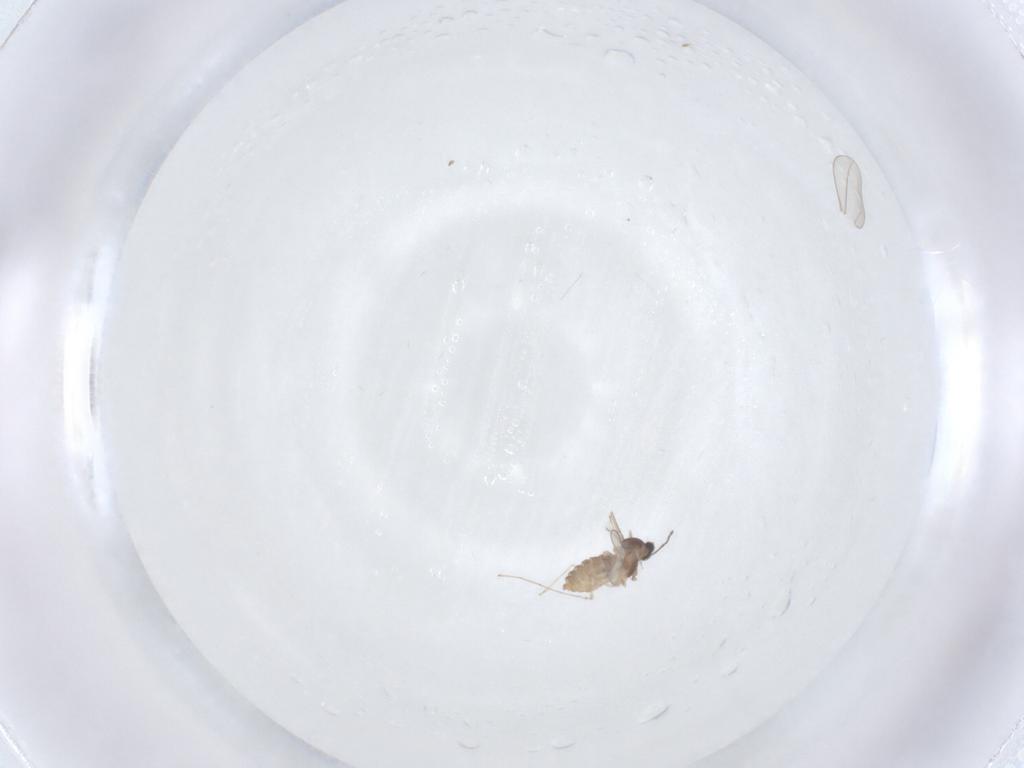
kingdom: Animalia
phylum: Arthropoda
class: Insecta
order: Diptera
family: Cecidomyiidae
